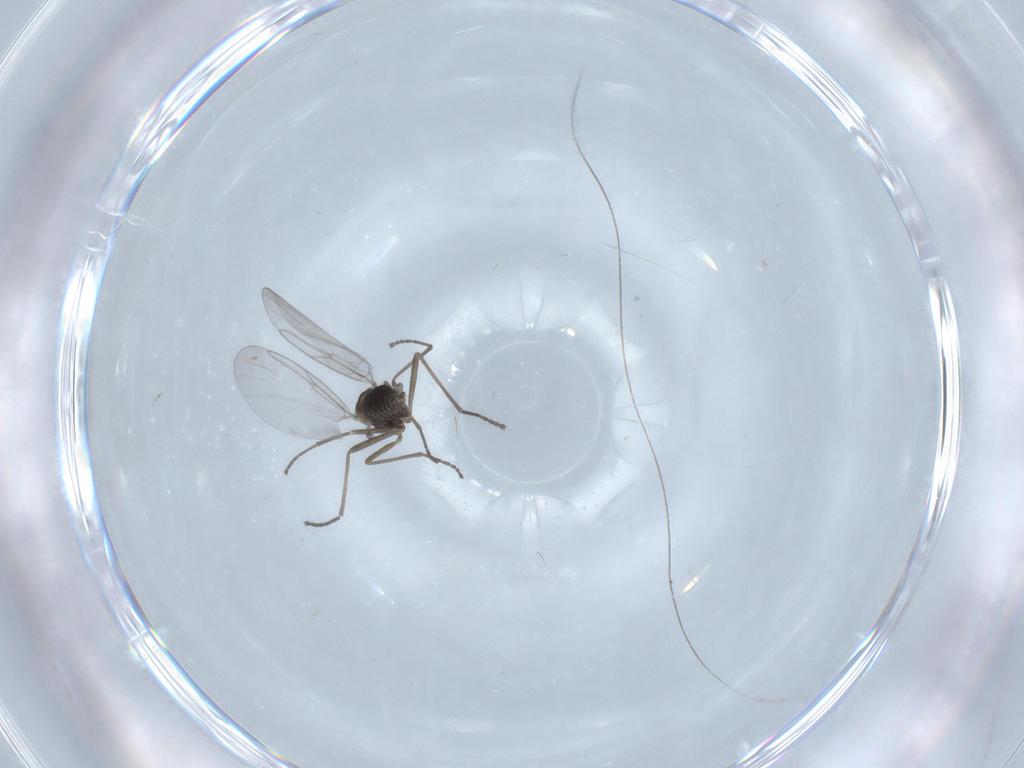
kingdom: Animalia
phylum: Arthropoda
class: Insecta
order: Diptera
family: Cecidomyiidae
